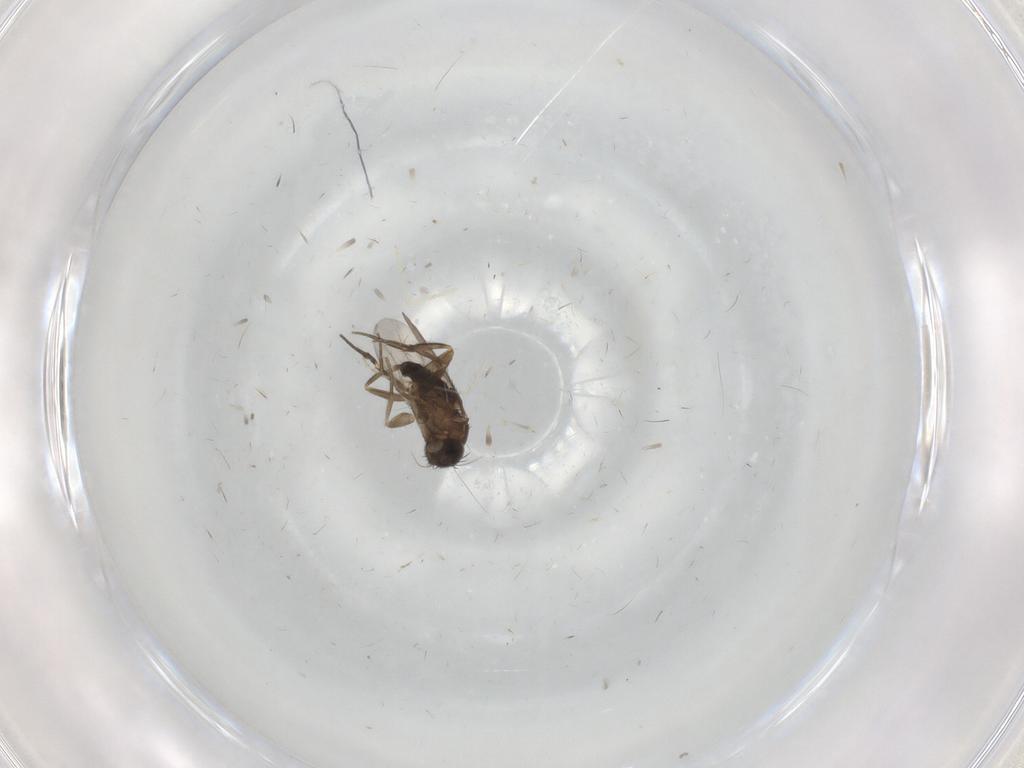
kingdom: Animalia
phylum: Arthropoda
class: Insecta
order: Diptera
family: Phoridae
